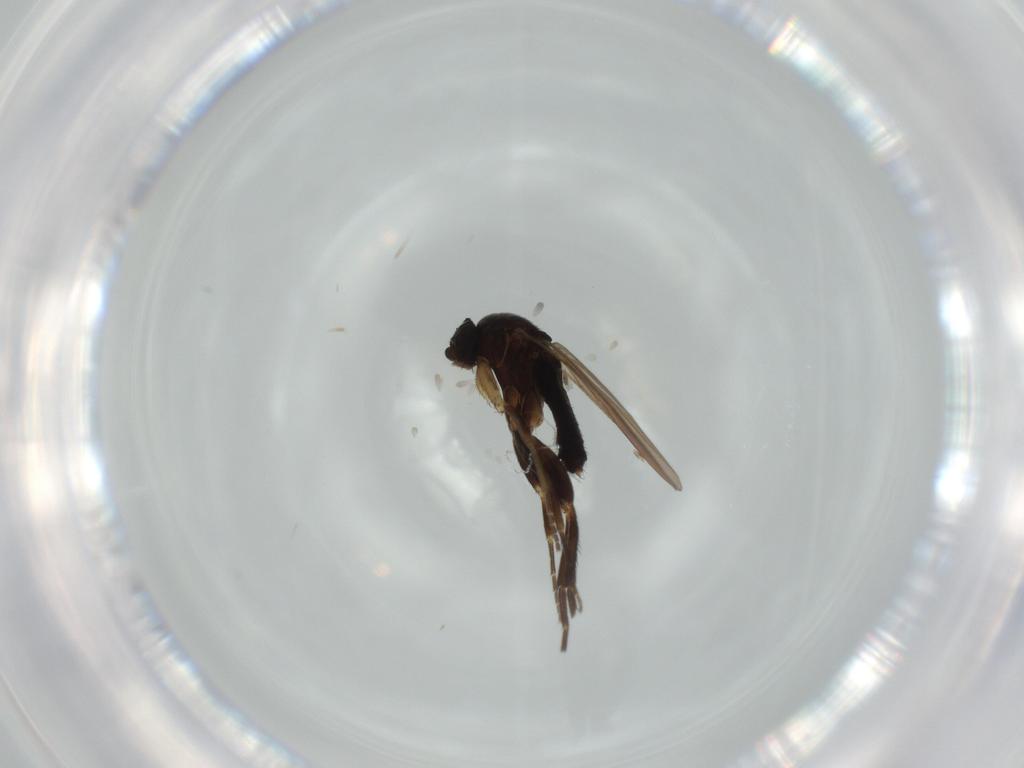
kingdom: Animalia
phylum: Arthropoda
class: Insecta
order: Diptera
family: Phoridae
